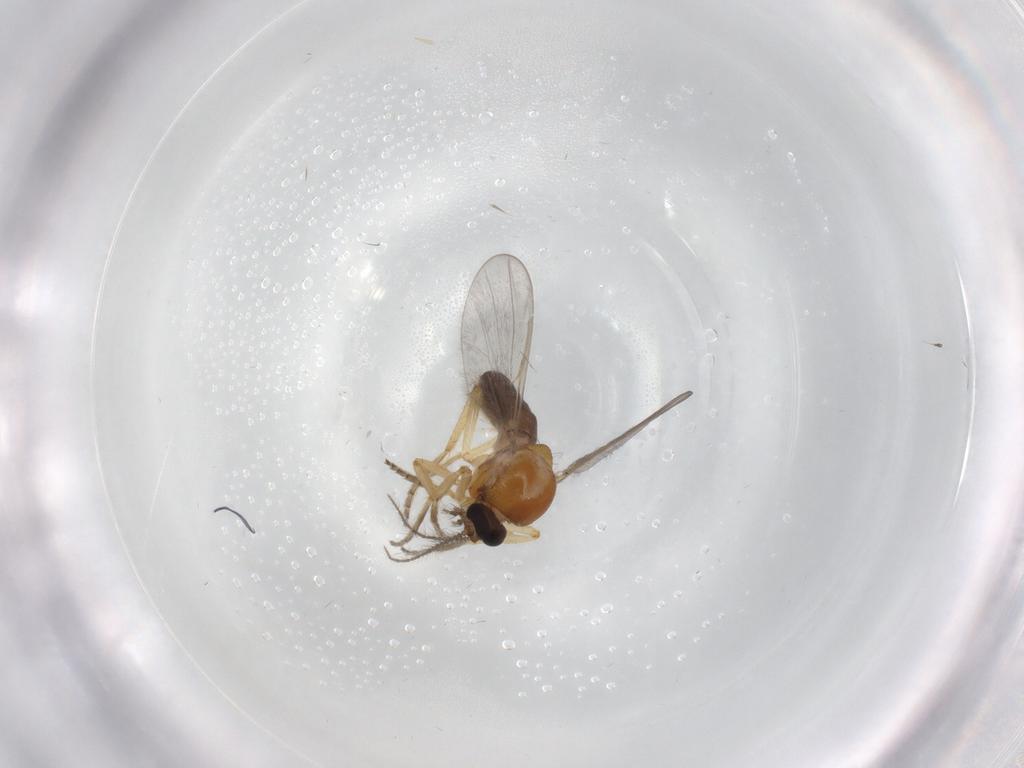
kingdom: Animalia
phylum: Arthropoda
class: Insecta
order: Diptera
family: Ceratopogonidae
